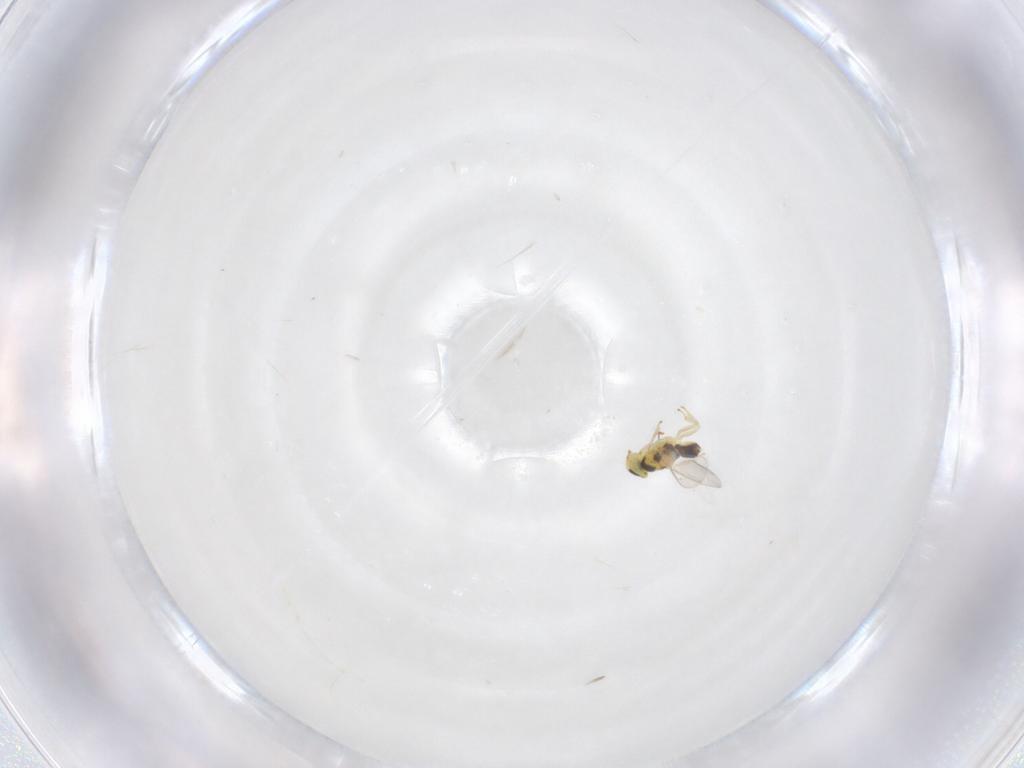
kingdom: Animalia
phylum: Arthropoda
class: Insecta
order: Hymenoptera
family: Aphelinidae
